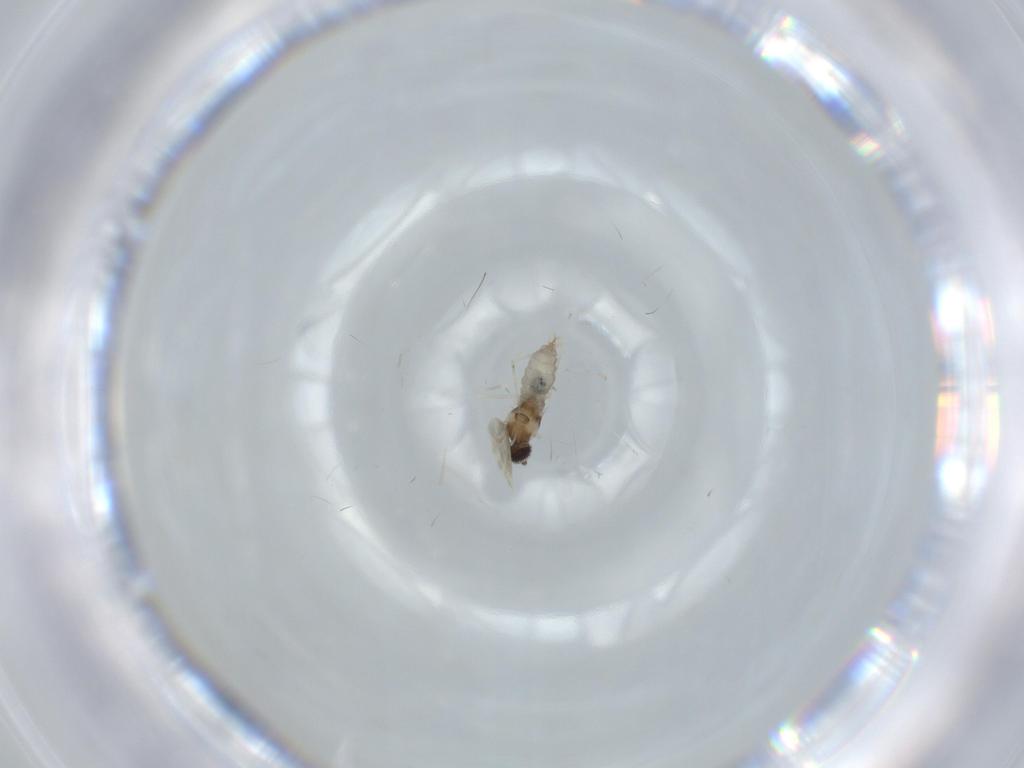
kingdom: Animalia
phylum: Arthropoda
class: Insecta
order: Diptera
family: Cecidomyiidae
